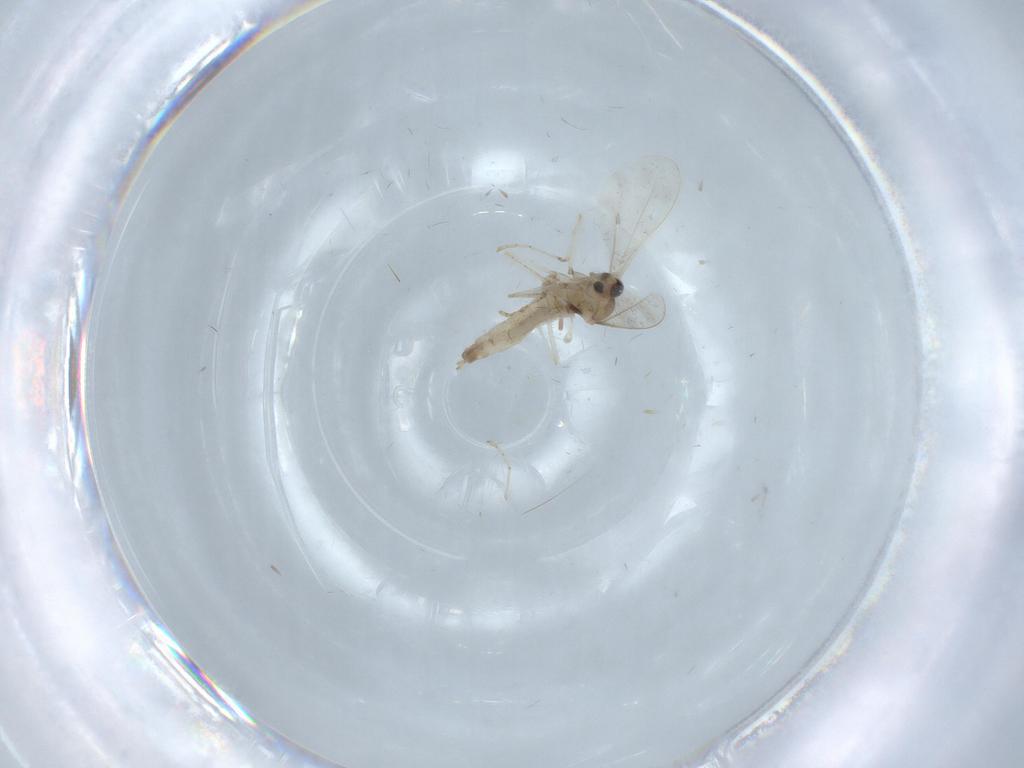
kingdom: Animalia
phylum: Arthropoda
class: Insecta
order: Diptera
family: Cecidomyiidae
